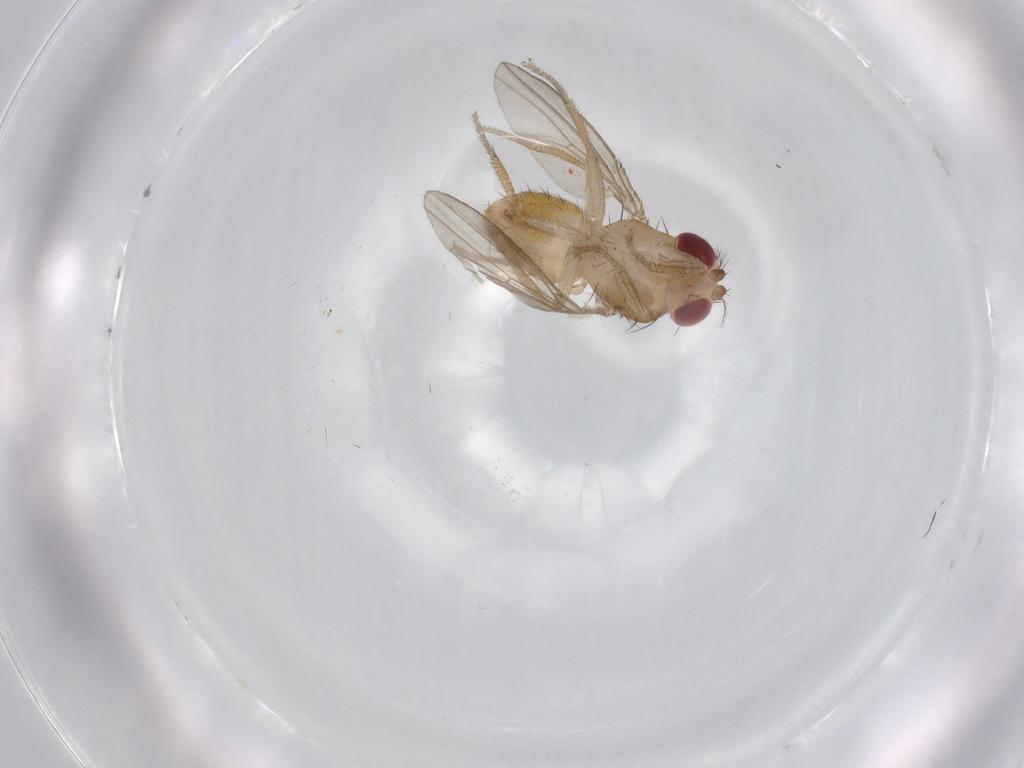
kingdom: Animalia
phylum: Arthropoda
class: Insecta
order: Diptera
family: Drosophilidae
